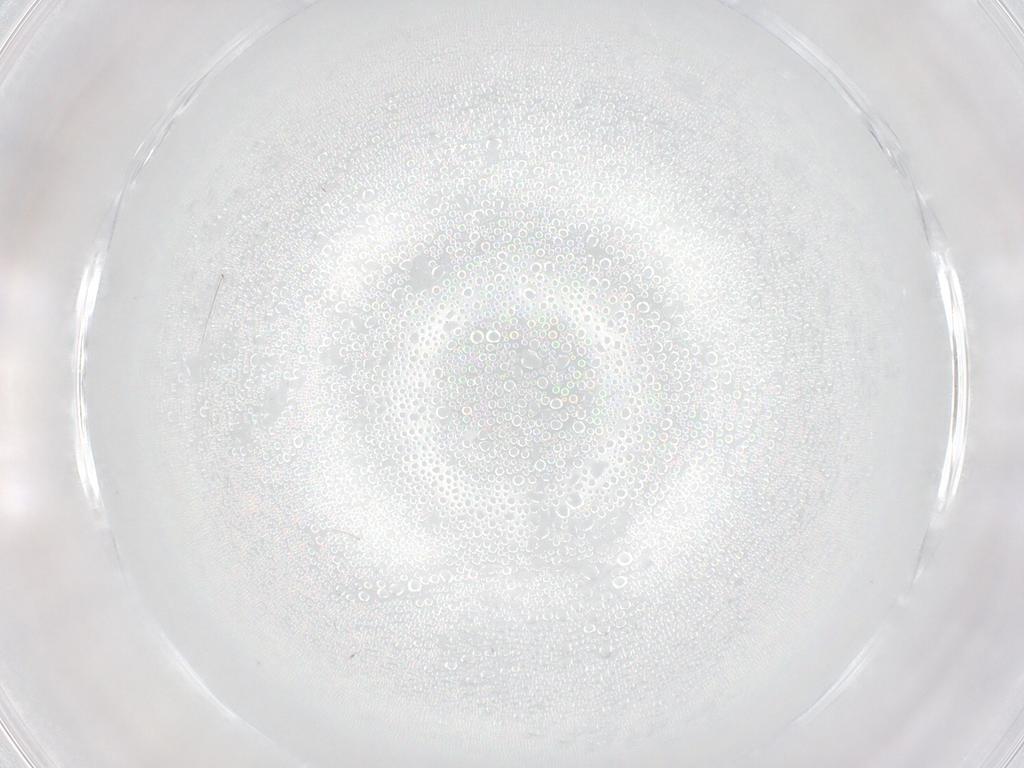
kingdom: Animalia
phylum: Arthropoda
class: Insecta
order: Diptera
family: Cecidomyiidae
